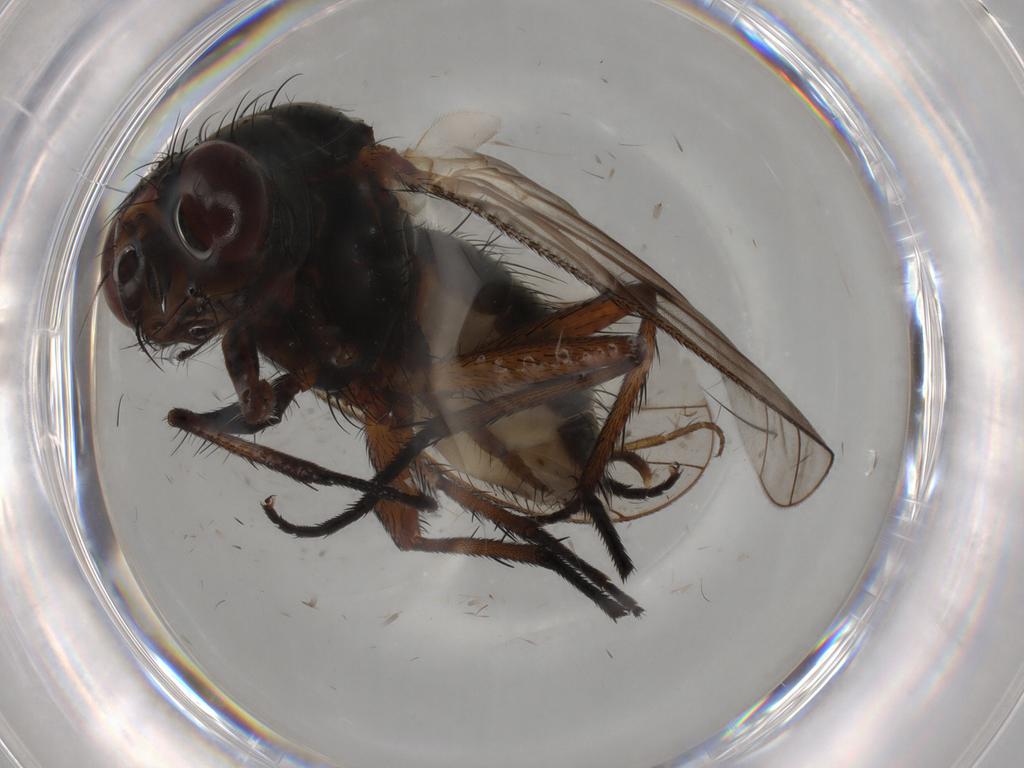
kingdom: Animalia
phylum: Arthropoda
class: Insecta
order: Diptera
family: Anthomyiidae
